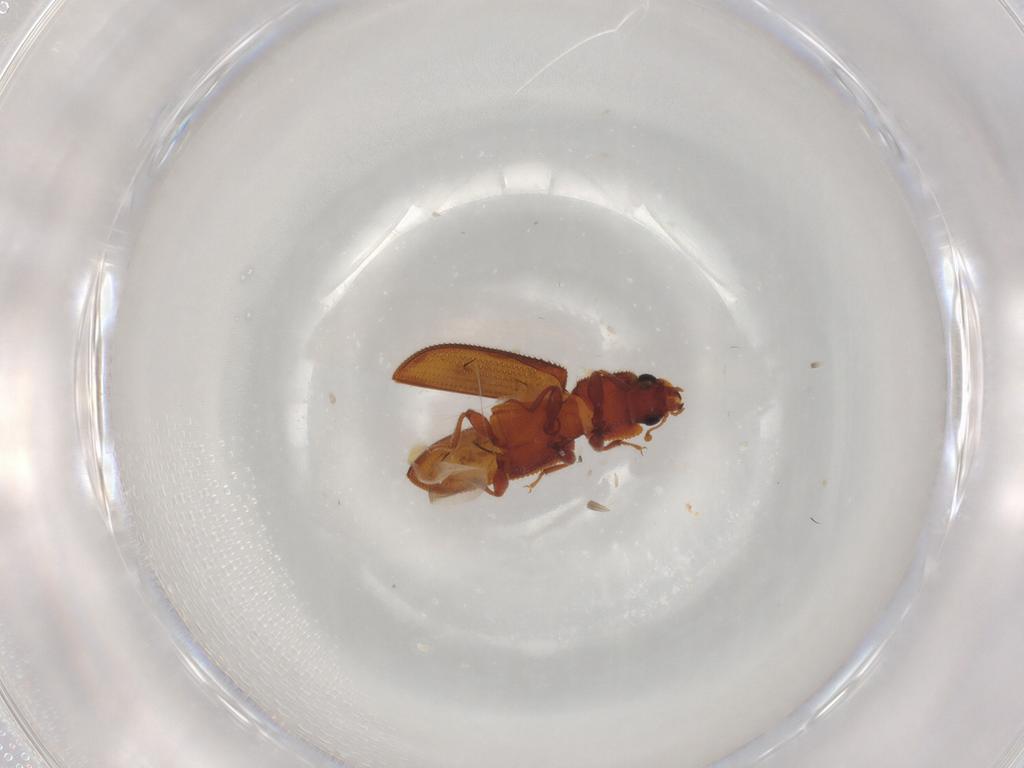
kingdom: Animalia
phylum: Arthropoda
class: Insecta
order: Coleoptera
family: Zopheridae
